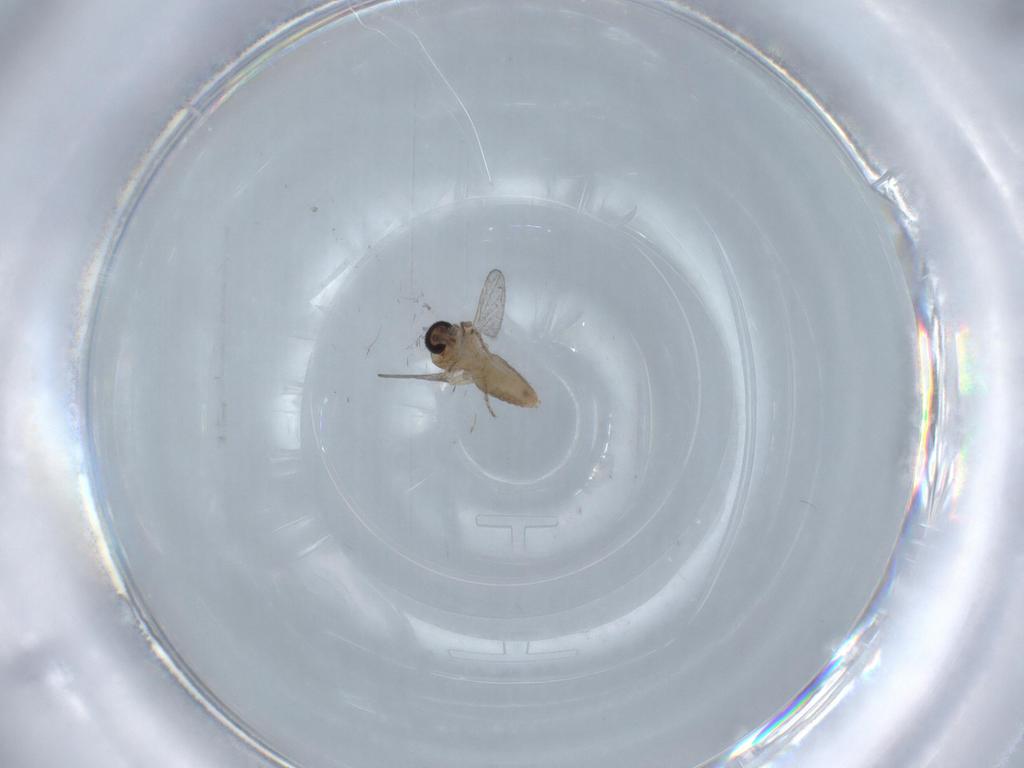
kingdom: Animalia
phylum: Arthropoda
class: Insecta
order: Diptera
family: Ceratopogonidae
